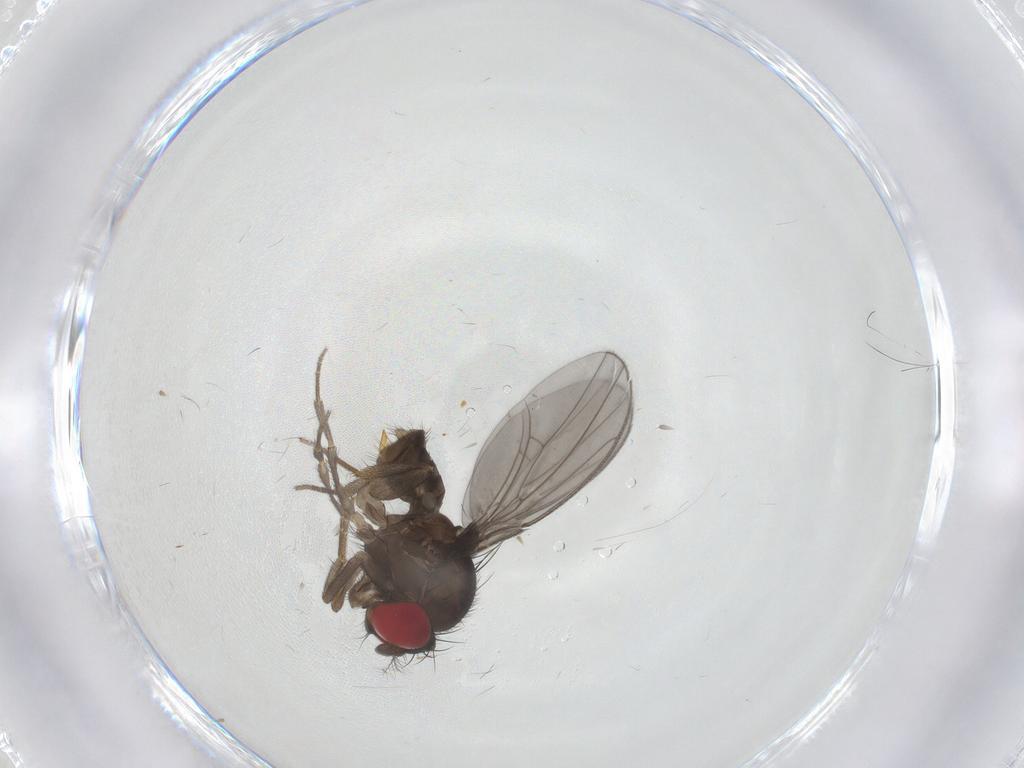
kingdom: Animalia
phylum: Arthropoda
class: Insecta
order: Diptera
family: Drosophilidae
